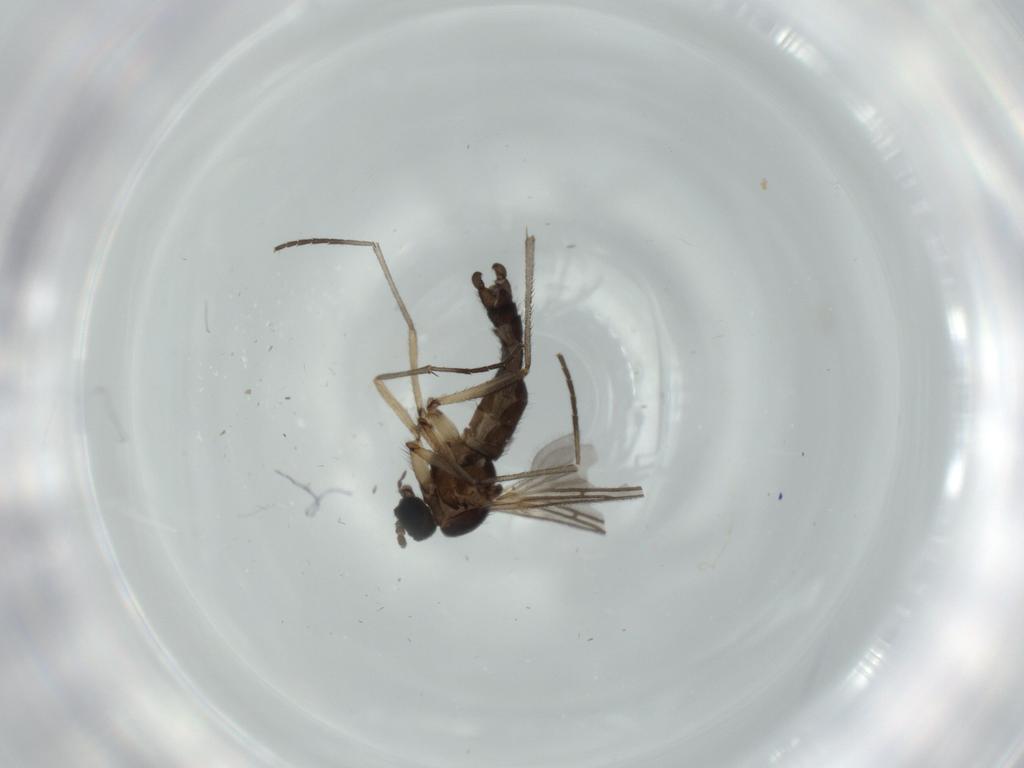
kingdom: Animalia
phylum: Arthropoda
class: Insecta
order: Diptera
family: Sciaridae
